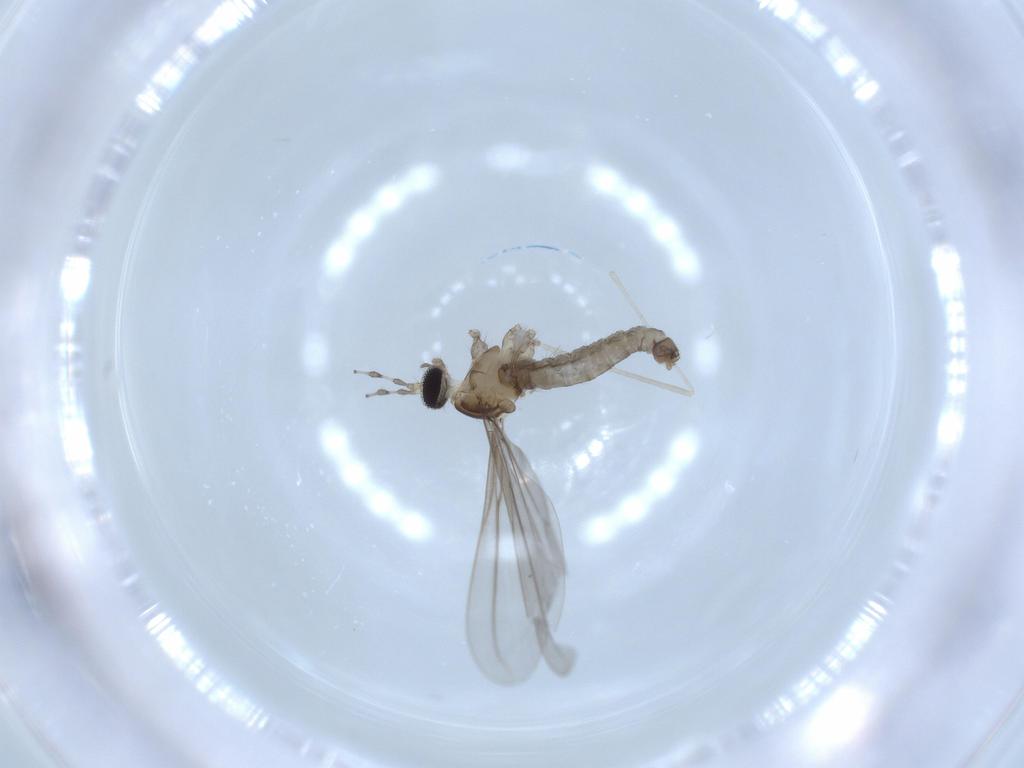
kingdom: Animalia
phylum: Arthropoda
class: Insecta
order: Diptera
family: Cecidomyiidae
